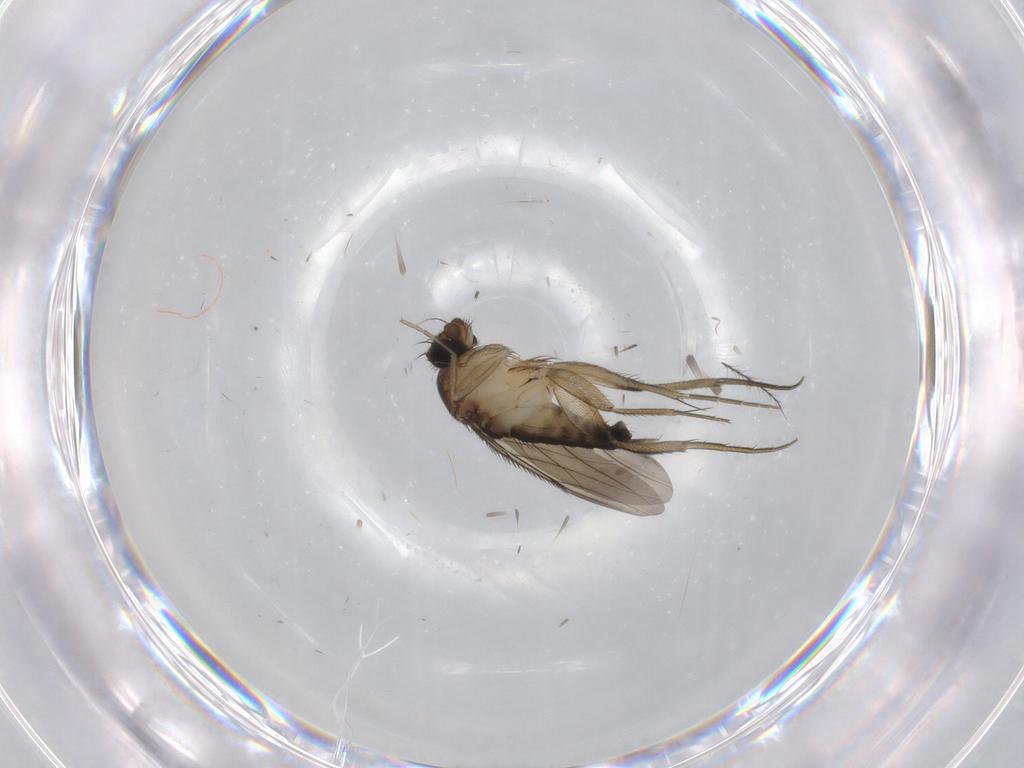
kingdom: Animalia
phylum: Arthropoda
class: Insecta
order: Diptera
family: Phoridae
